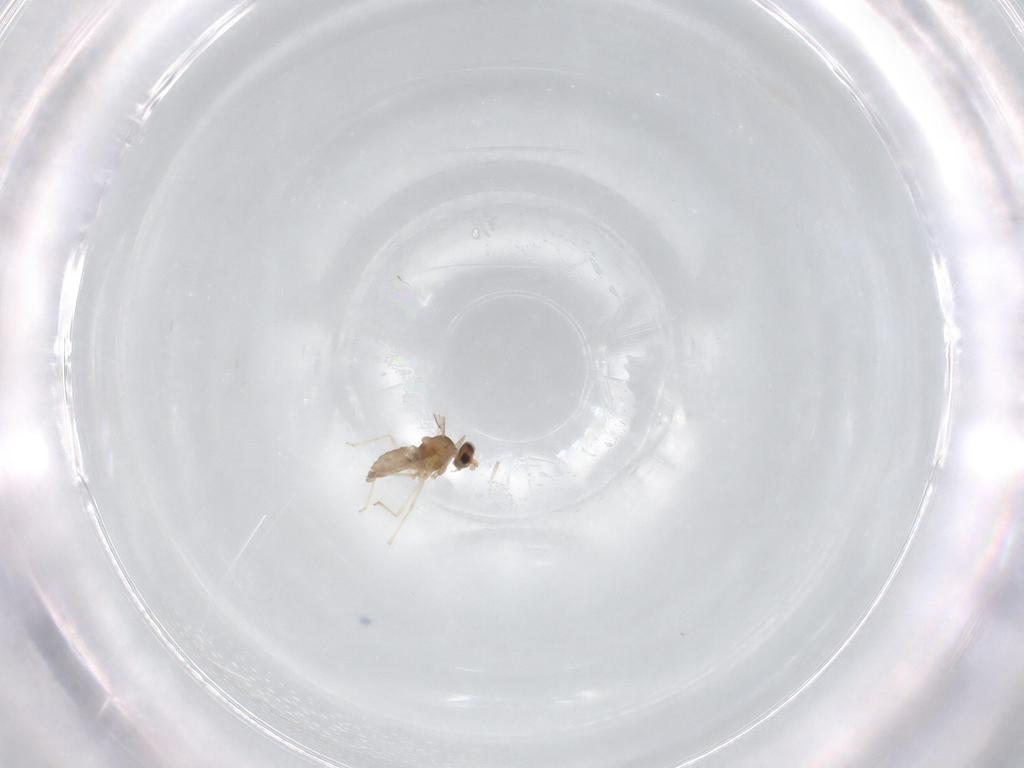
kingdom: Animalia
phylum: Arthropoda
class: Insecta
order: Diptera
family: Cecidomyiidae
